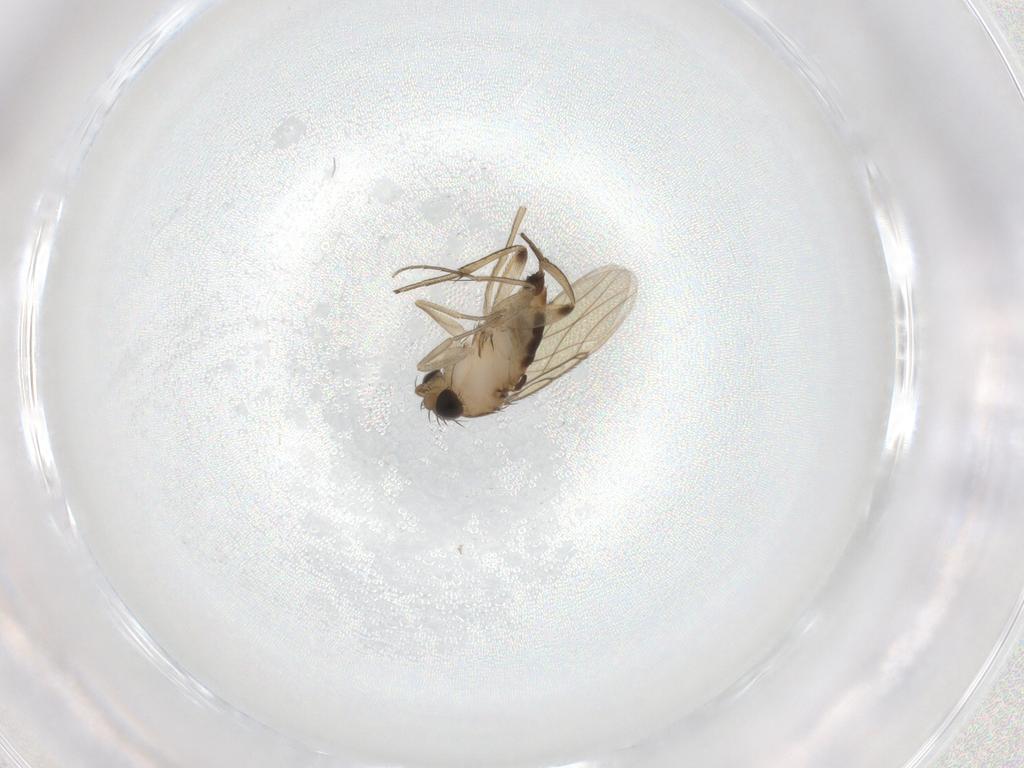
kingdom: Animalia
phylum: Arthropoda
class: Insecta
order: Diptera
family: Phoridae
